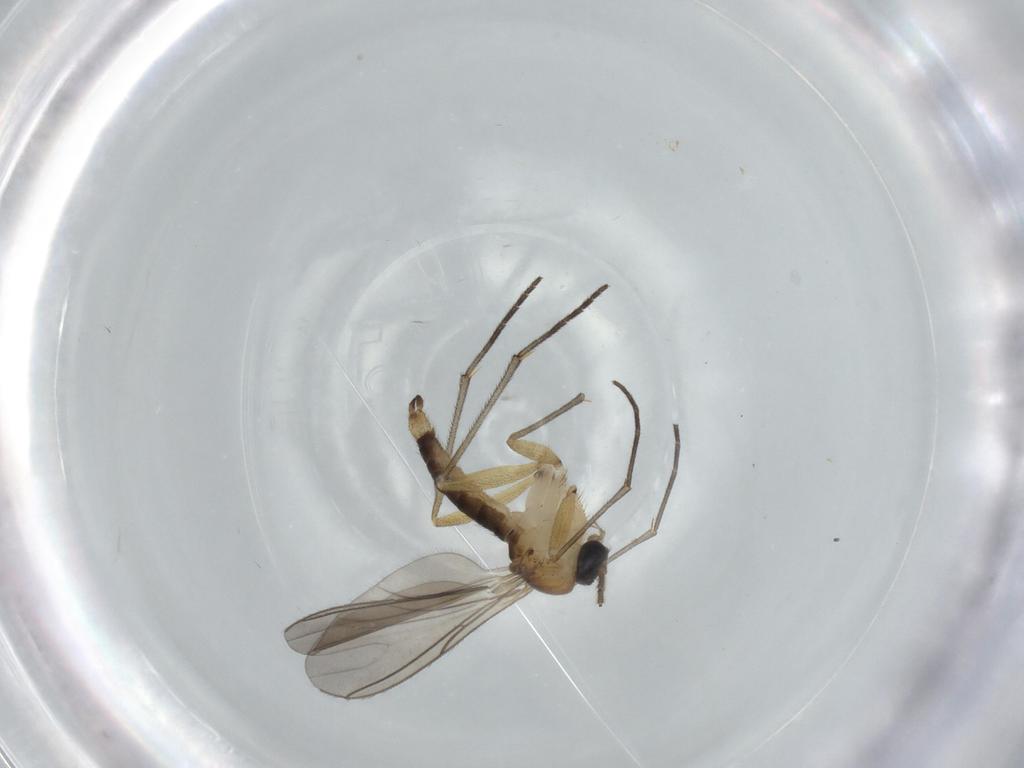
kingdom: Animalia
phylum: Arthropoda
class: Insecta
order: Diptera
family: Sciaridae
